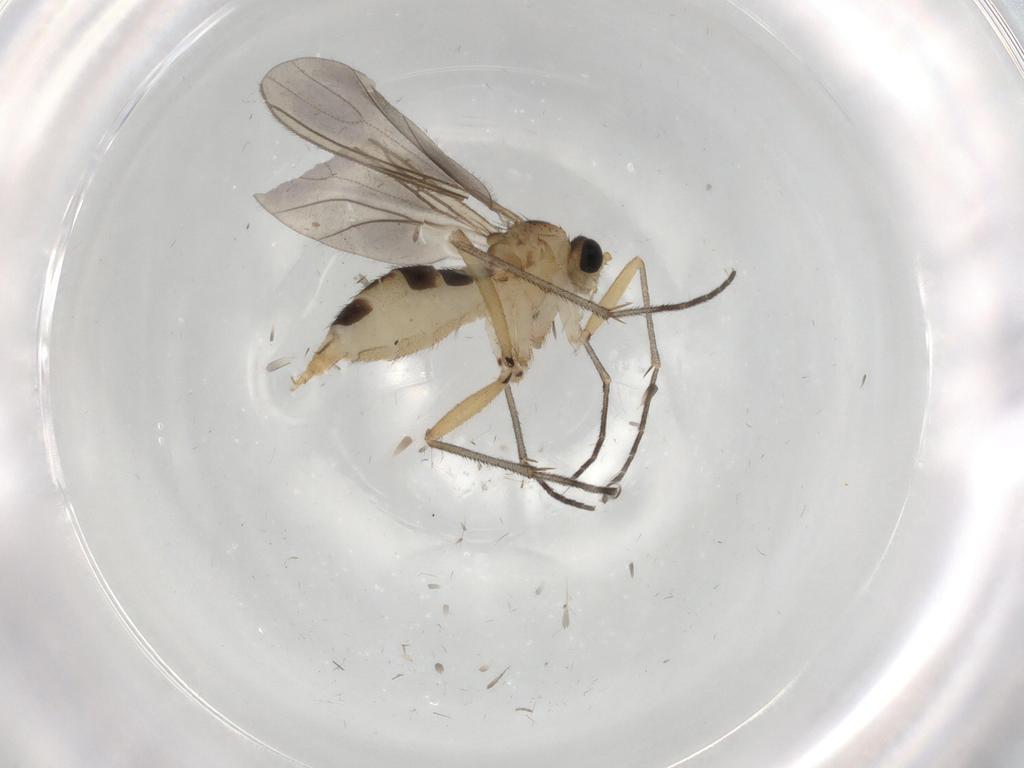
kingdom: Animalia
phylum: Arthropoda
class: Insecta
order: Diptera
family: Sciaridae
